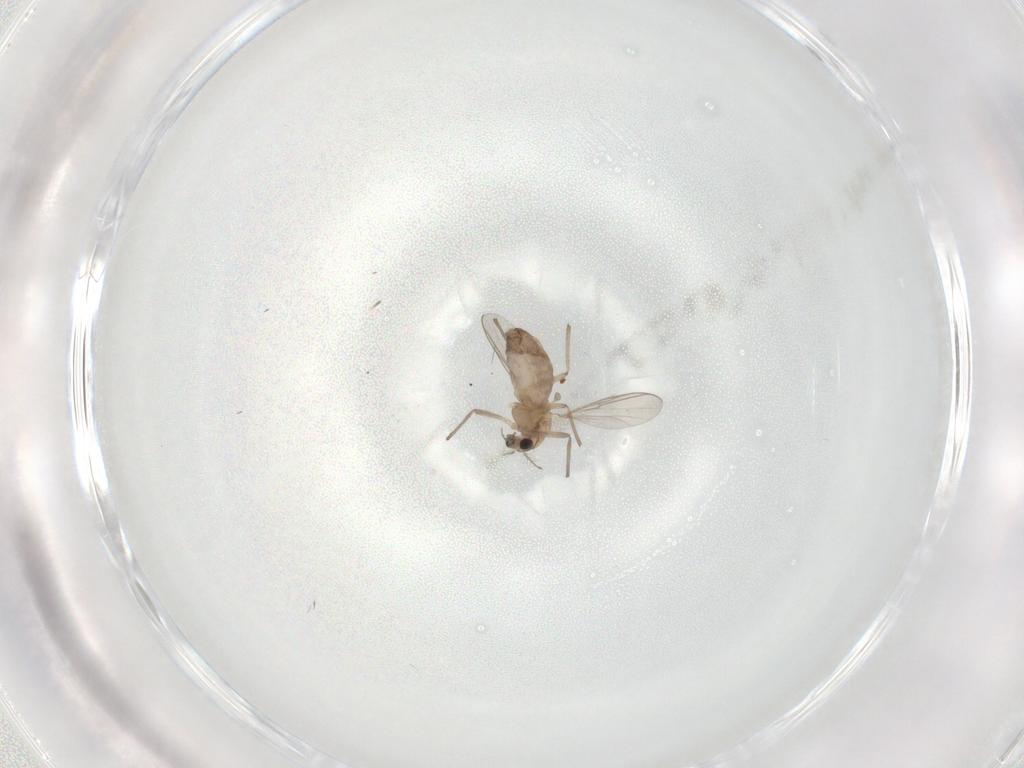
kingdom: Animalia
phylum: Arthropoda
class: Insecta
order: Diptera
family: Chironomidae
